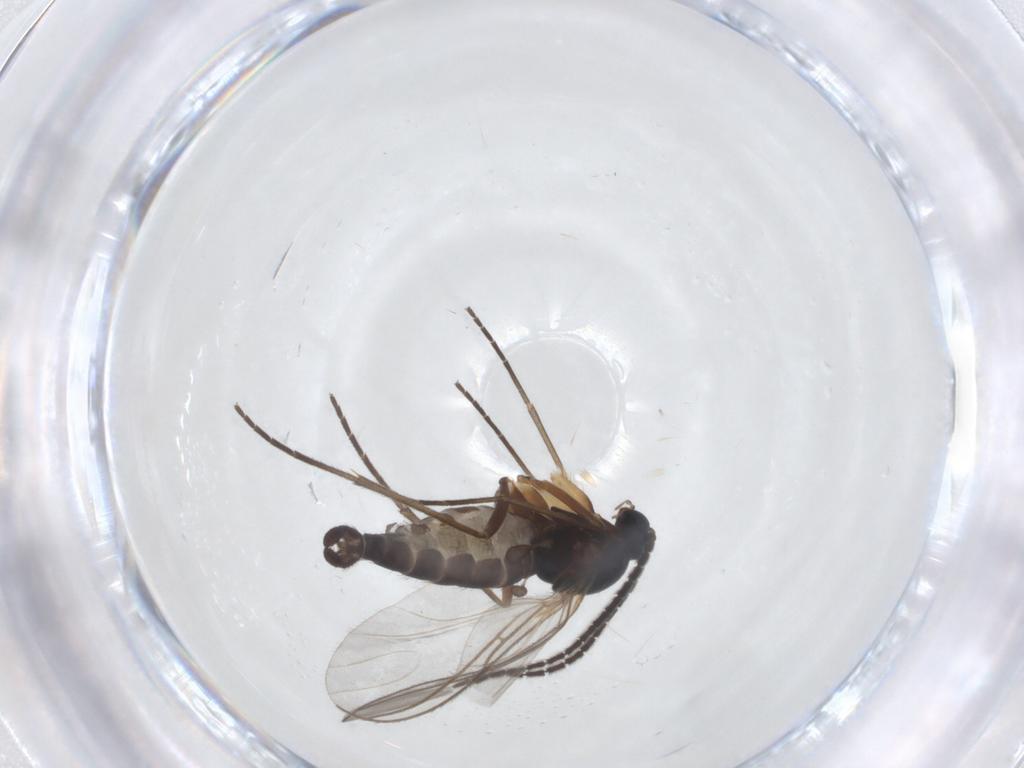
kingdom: Animalia
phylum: Arthropoda
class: Insecta
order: Diptera
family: Sciaridae
